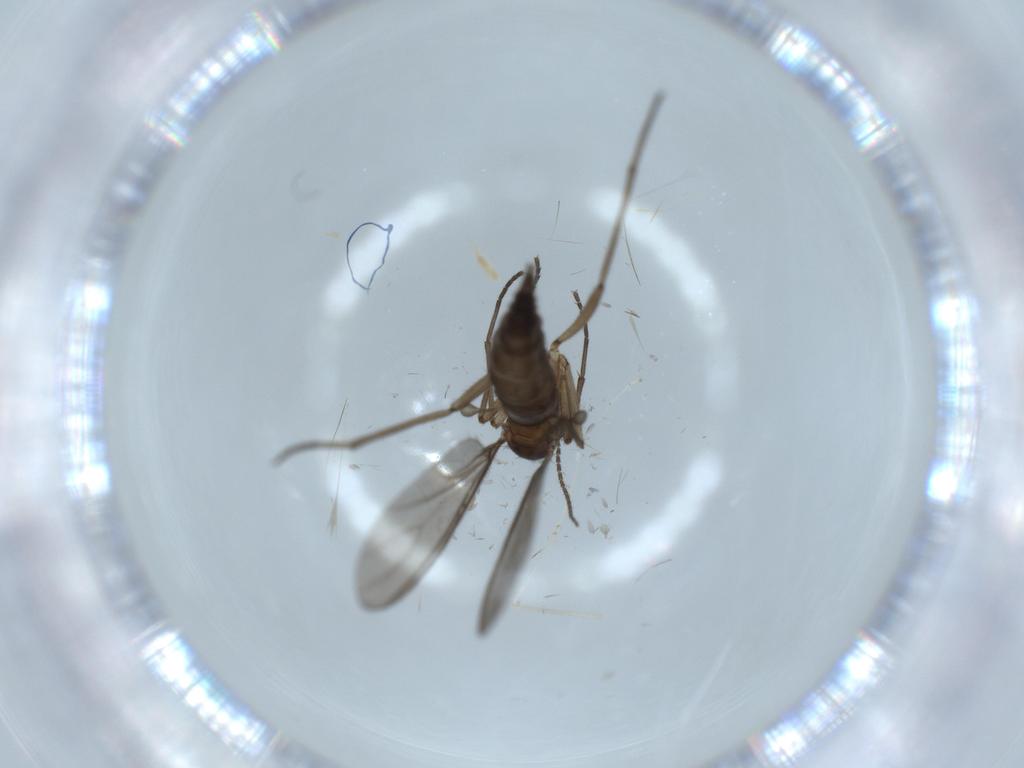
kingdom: Animalia
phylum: Arthropoda
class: Insecta
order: Diptera
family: Sciaridae
